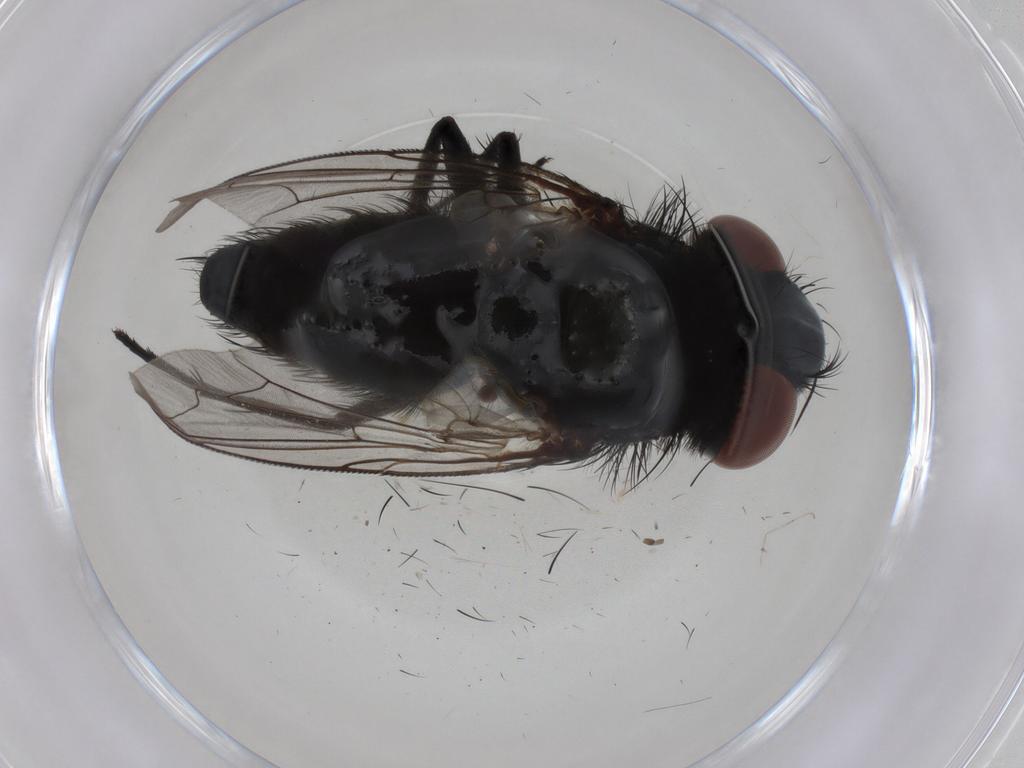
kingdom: Animalia
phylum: Arthropoda
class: Insecta
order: Diptera
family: Sarcophagidae
